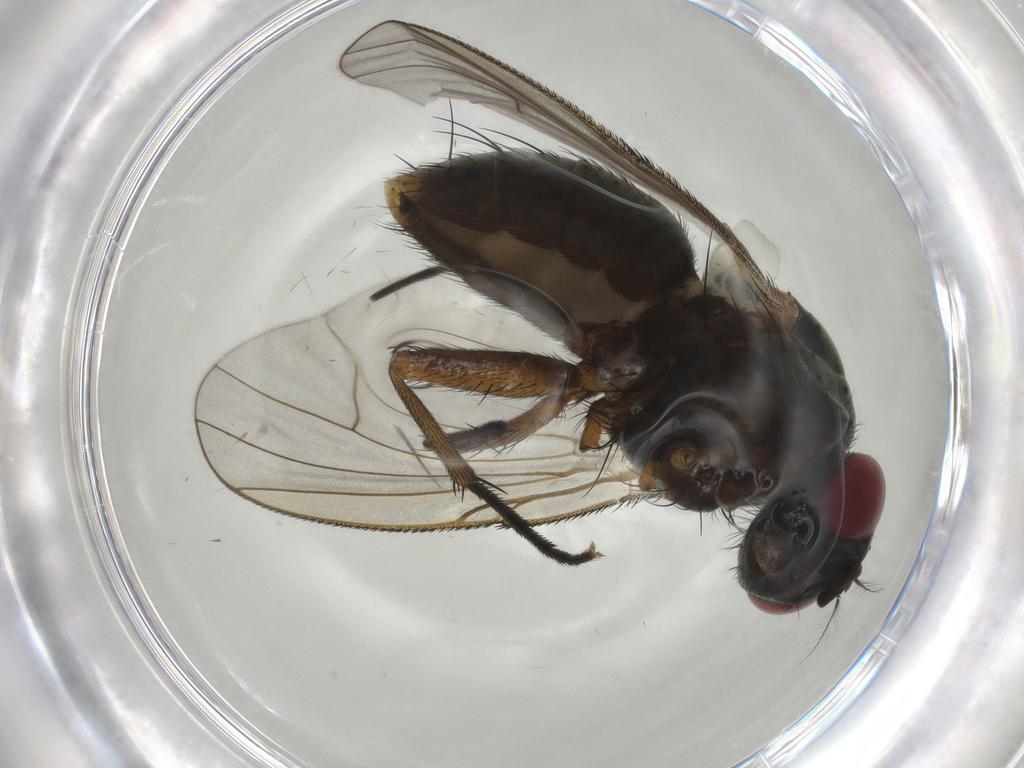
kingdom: Animalia
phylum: Arthropoda
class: Insecta
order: Diptera
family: Muscidae
